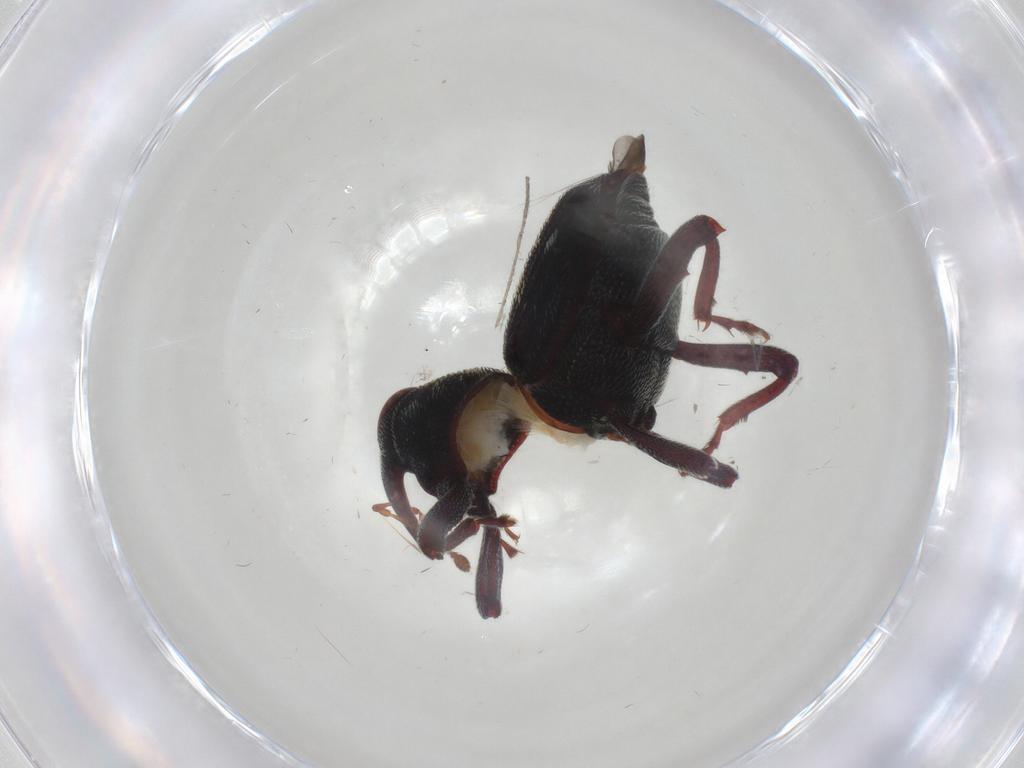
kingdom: Animalia
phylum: Arthropoda
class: Insecta
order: Coleoptera
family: Curculionidae
